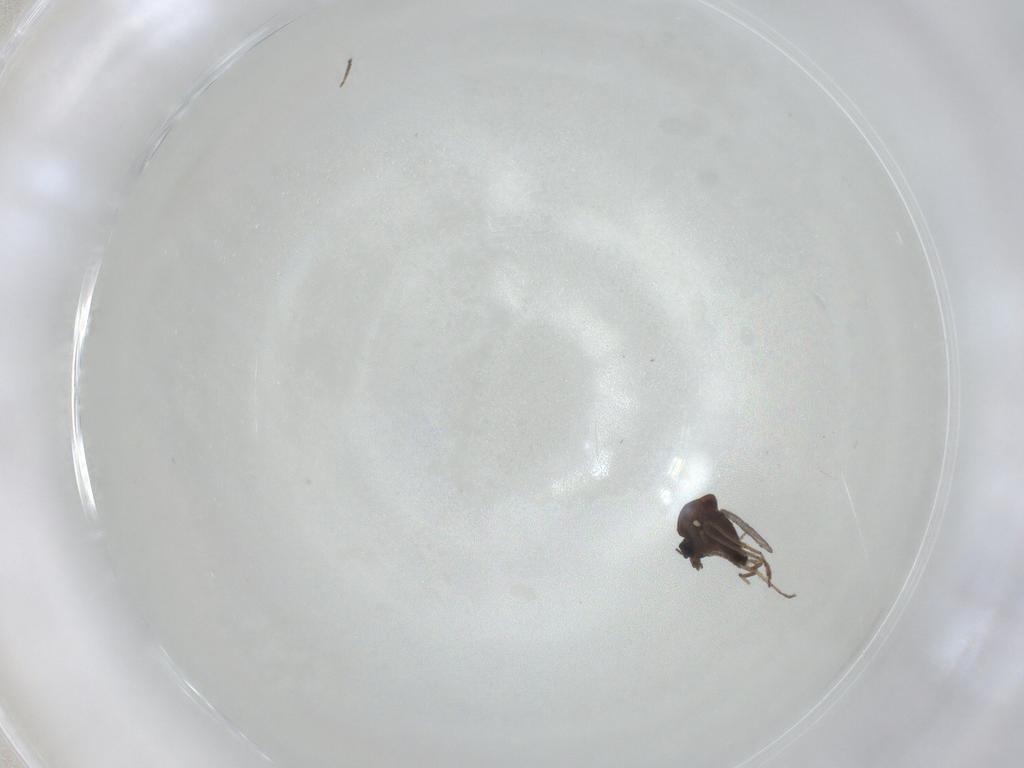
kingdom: Animalia
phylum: Arthropoda
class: Insecta
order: Diptera
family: Ceratopogonidae
